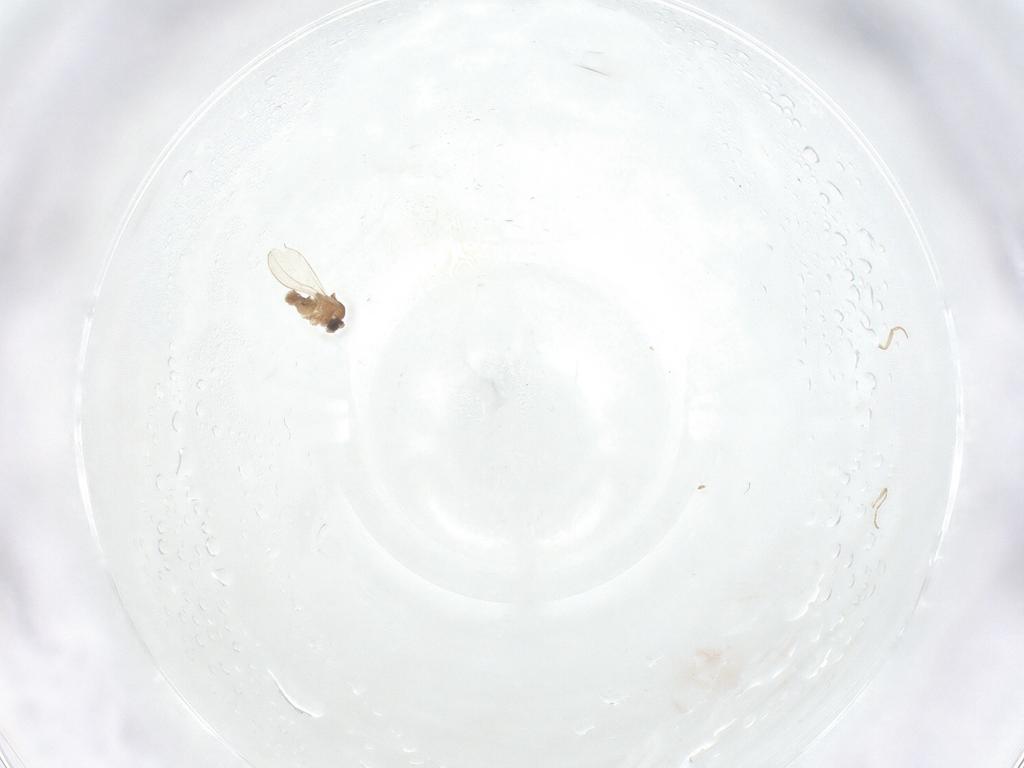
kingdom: Animalia
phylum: Arthropoda
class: Insecta
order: Diptera
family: Cecidomyiidae
